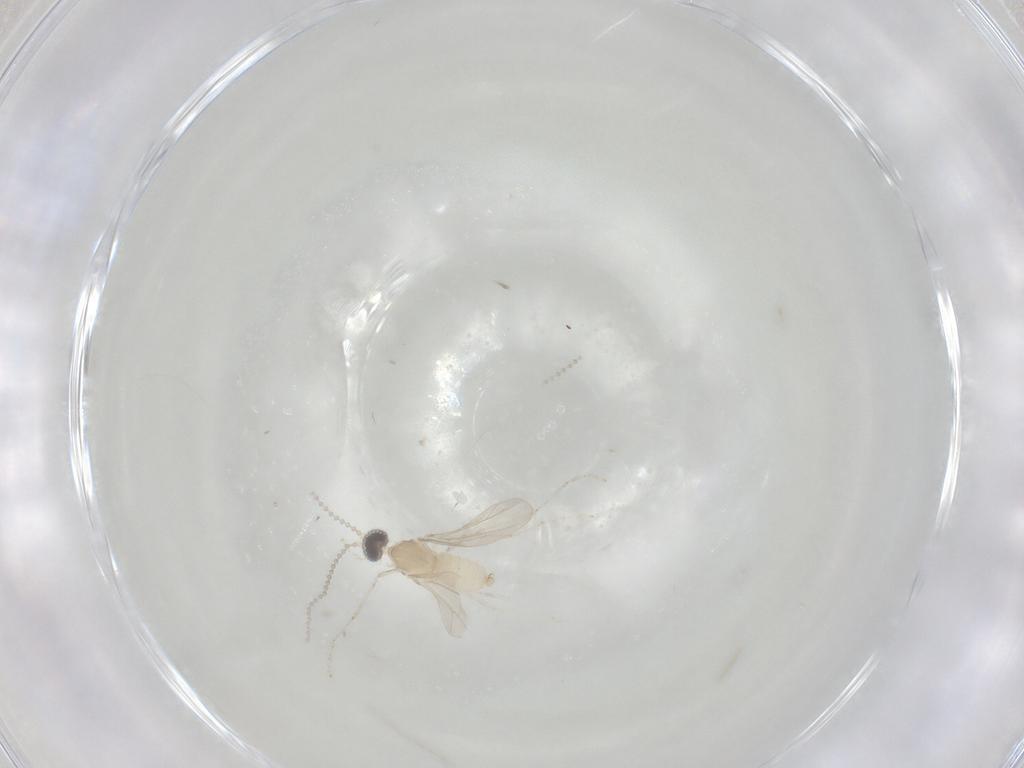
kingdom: Animalia
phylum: Arthropoda
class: Insecta
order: Diptera
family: Cecidomyiidae
